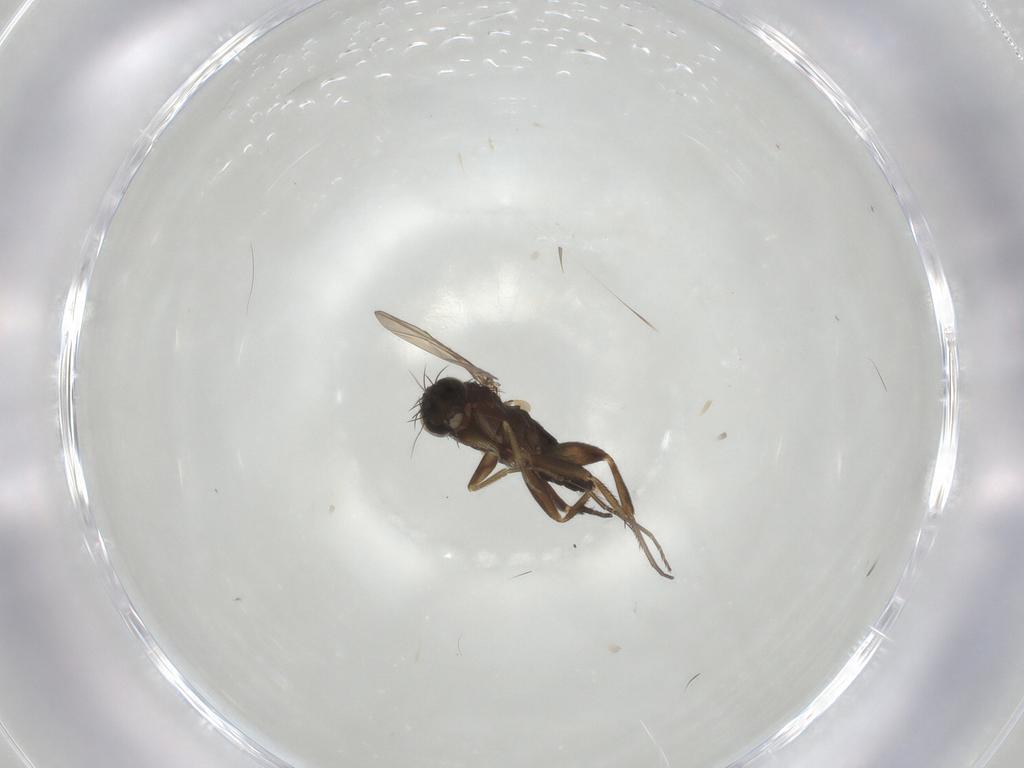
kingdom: Animalia
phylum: Arthropoda
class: Insecta
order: Diptera
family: Phoridae
